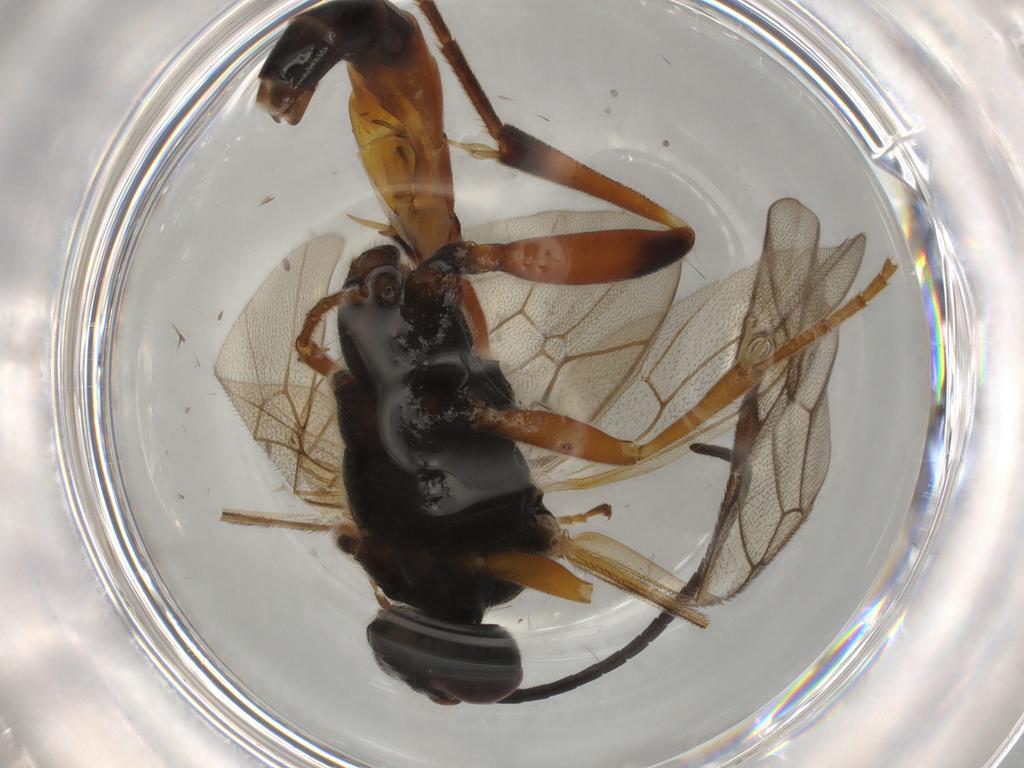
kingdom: Animalia
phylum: Arthropoda
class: Insecta
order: Hymenoptera
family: Ichneumonidae
